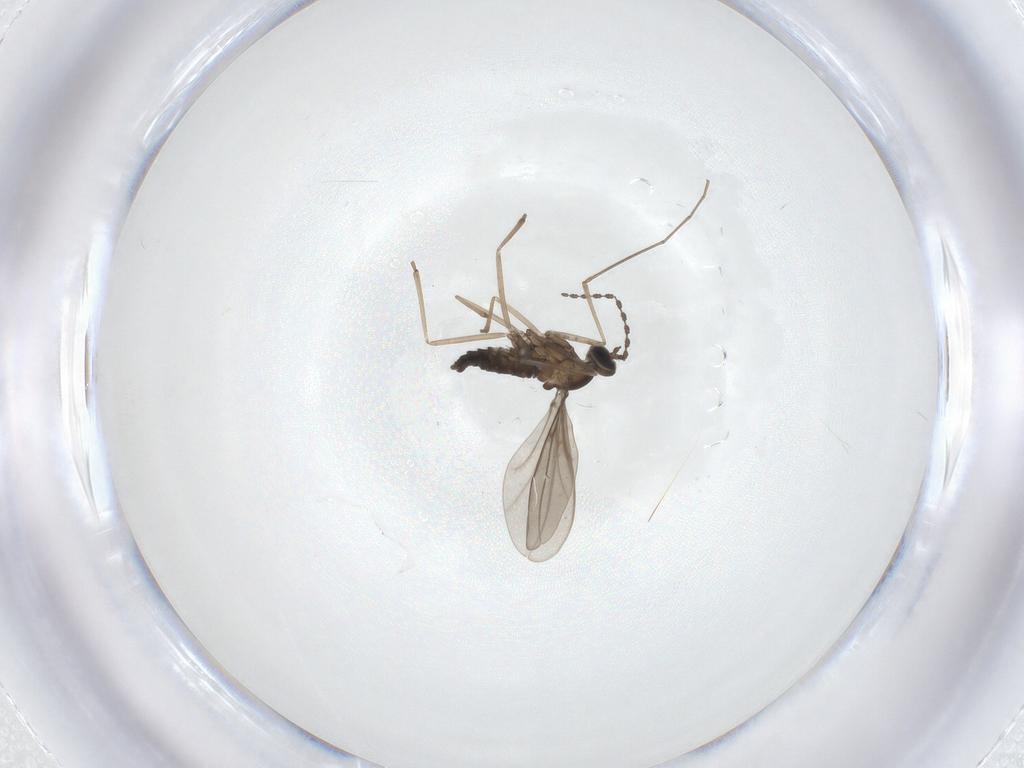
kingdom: Animalia
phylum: Arthropoda
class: Insecta
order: Diptera
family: Cecidomyiidae
